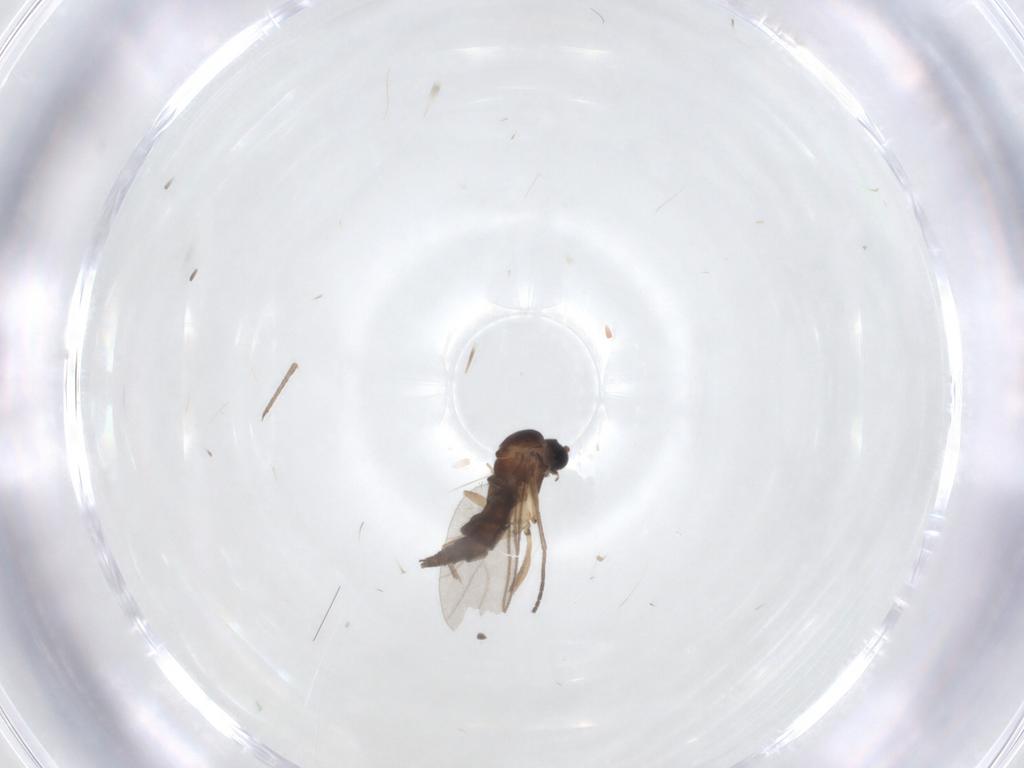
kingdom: Animalia
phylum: Arthropoda
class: Insecta
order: Diptera
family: Sciaridae
